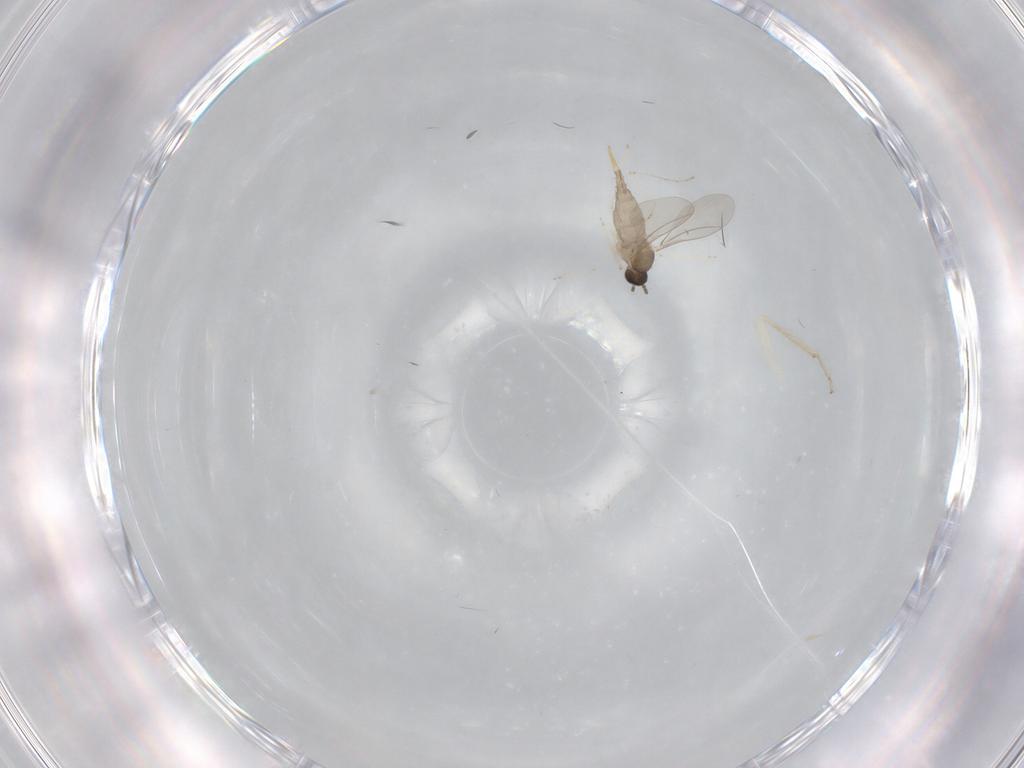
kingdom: Animalia
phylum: Arthropoda
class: Insecta
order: Diptera
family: Cecidomyiidae
